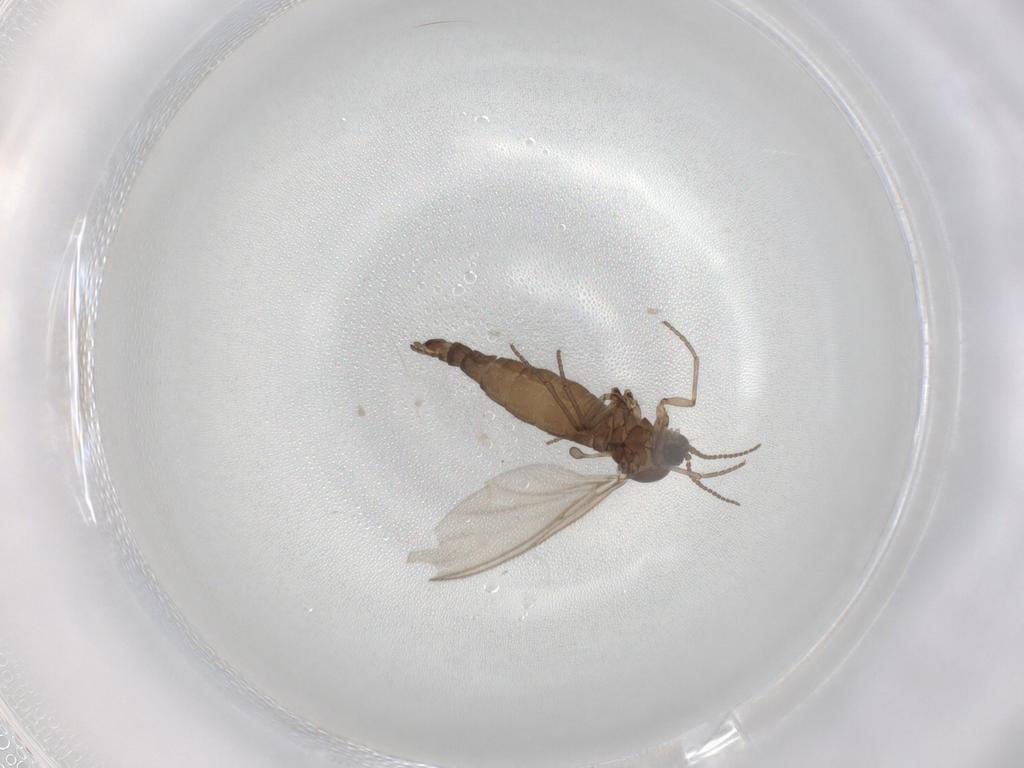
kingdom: Animalia
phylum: Arthropoda
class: Insecta
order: Diptera
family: Sciaridae
